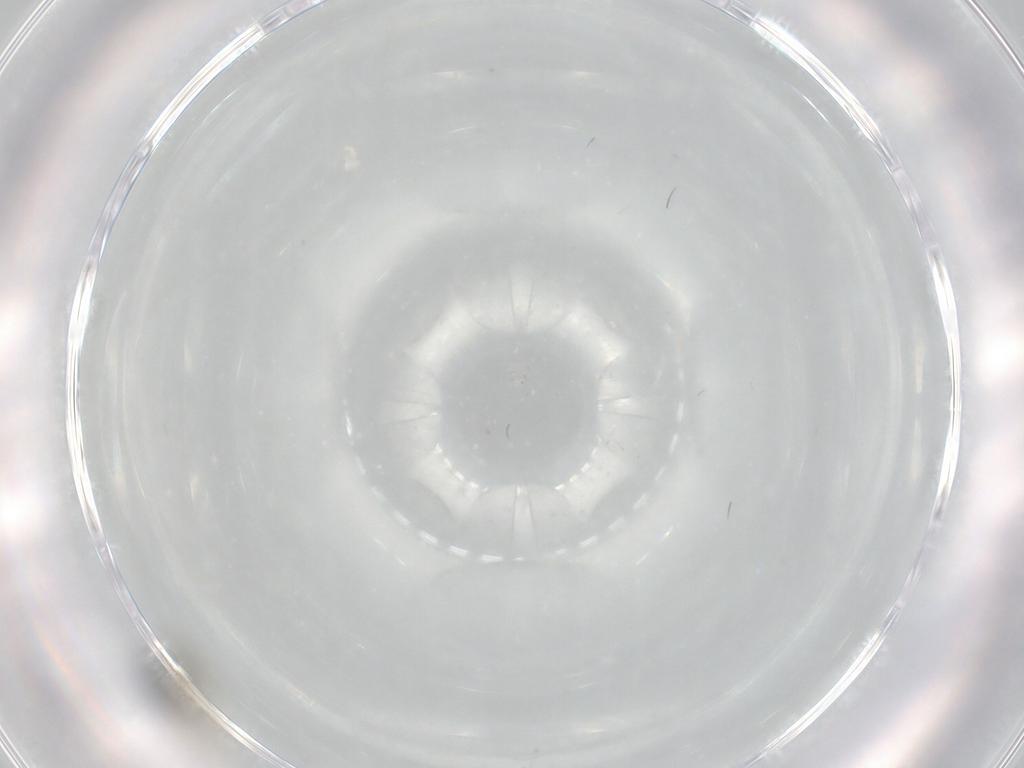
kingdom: Animalia
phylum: Arthropoda
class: Insecta
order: Diptera
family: Chironomidae
